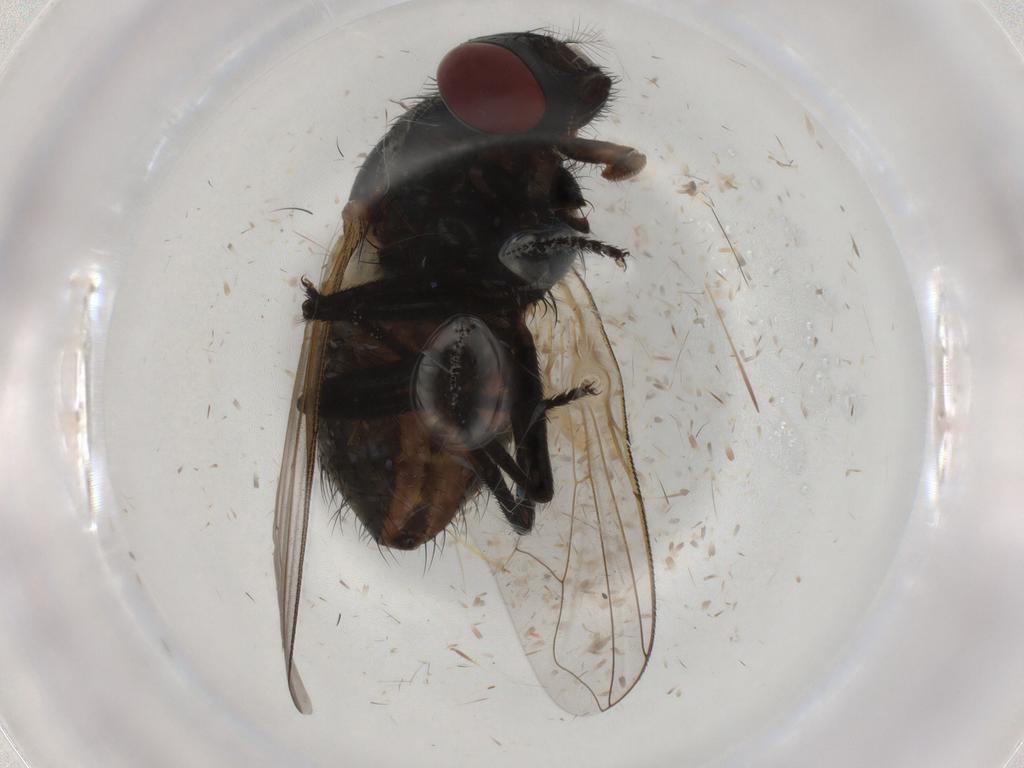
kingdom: Animalia
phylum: Arthropoda
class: Insecta
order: Diptera
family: Muscidae
